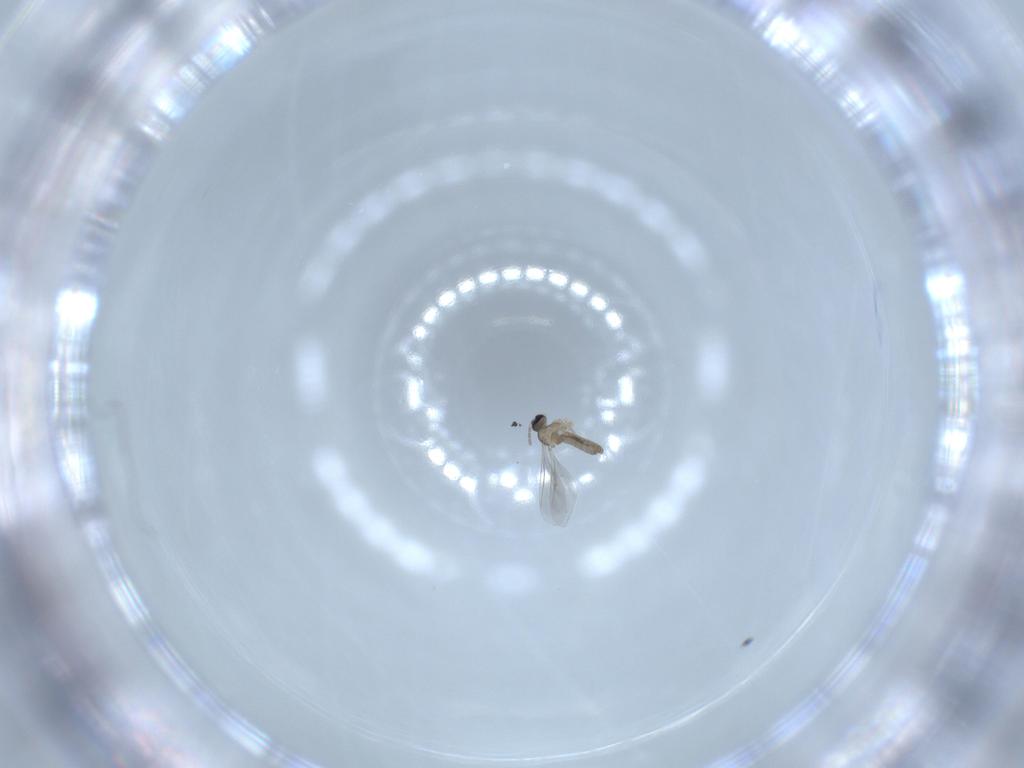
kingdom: Animalia
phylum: Arthropoda
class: Insecta
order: Diptera
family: Cecidomyiidae
